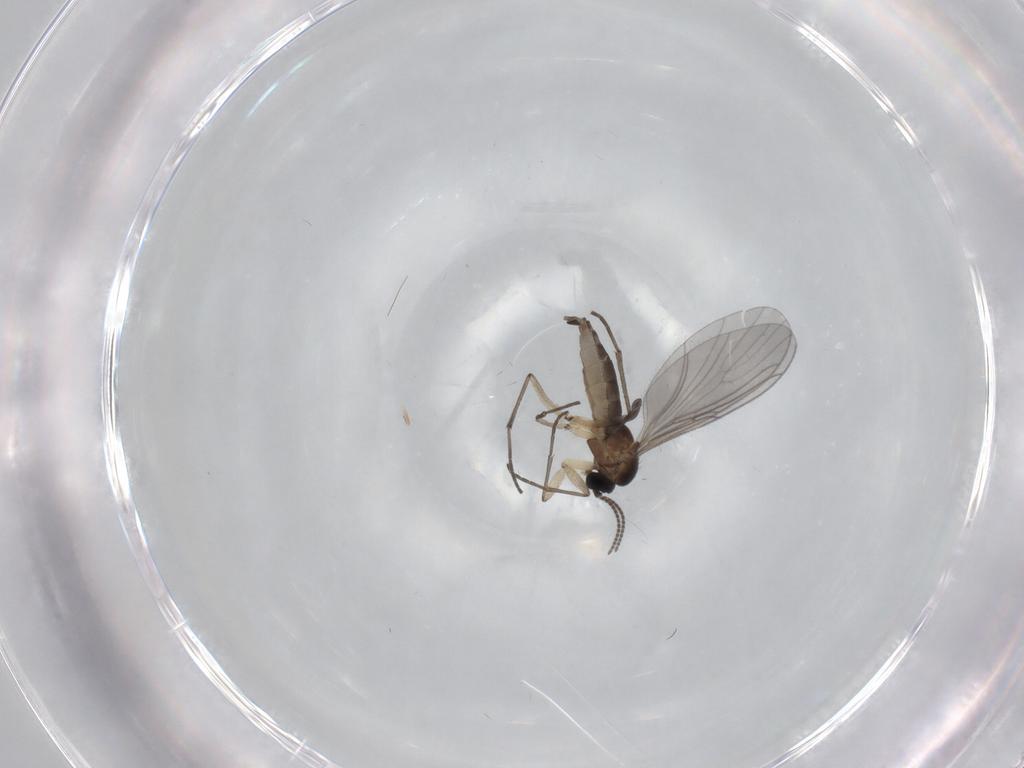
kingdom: Animalia
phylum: Arthropoda
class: Insecta
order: Diptera
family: Sciaridae
